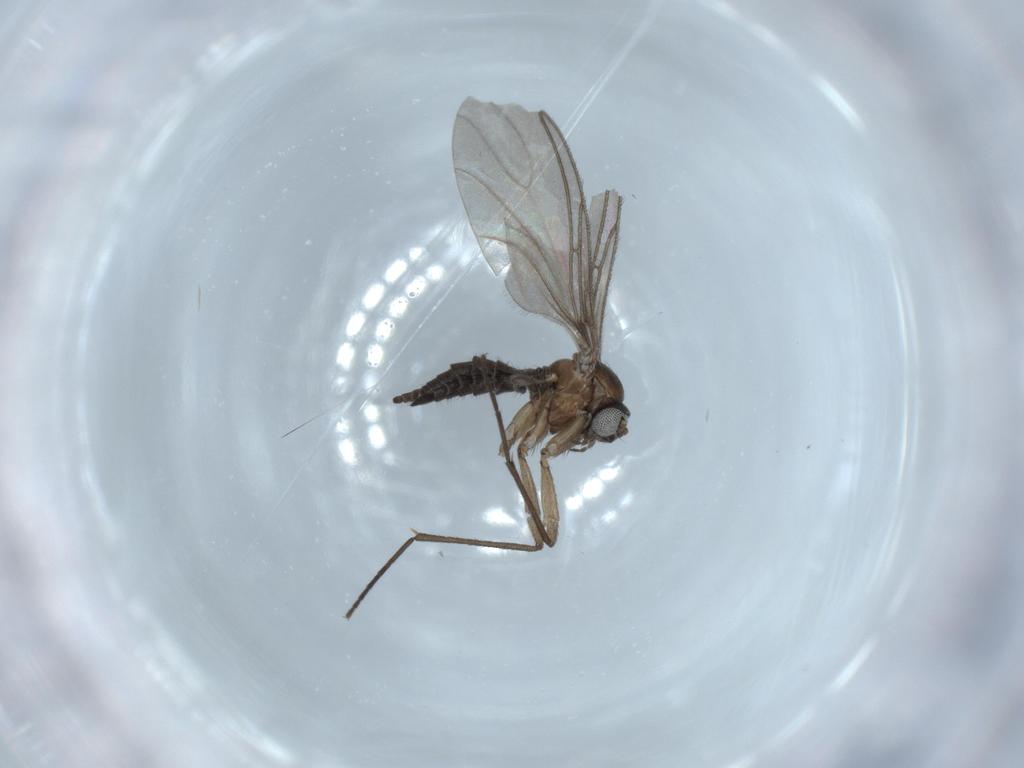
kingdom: Animalia
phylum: Arthropoda
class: Insecta
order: Diptera
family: Sciaridae
